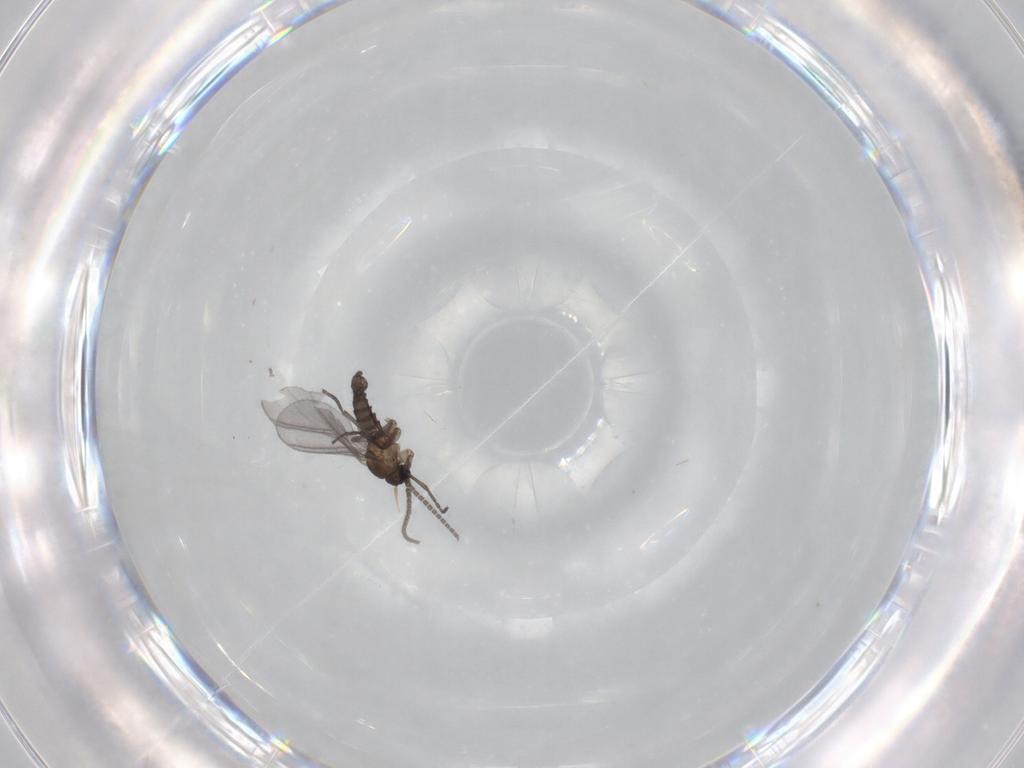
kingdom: Animalia
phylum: Arthropoda
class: Insecta
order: Diptera
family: Sciaridae
